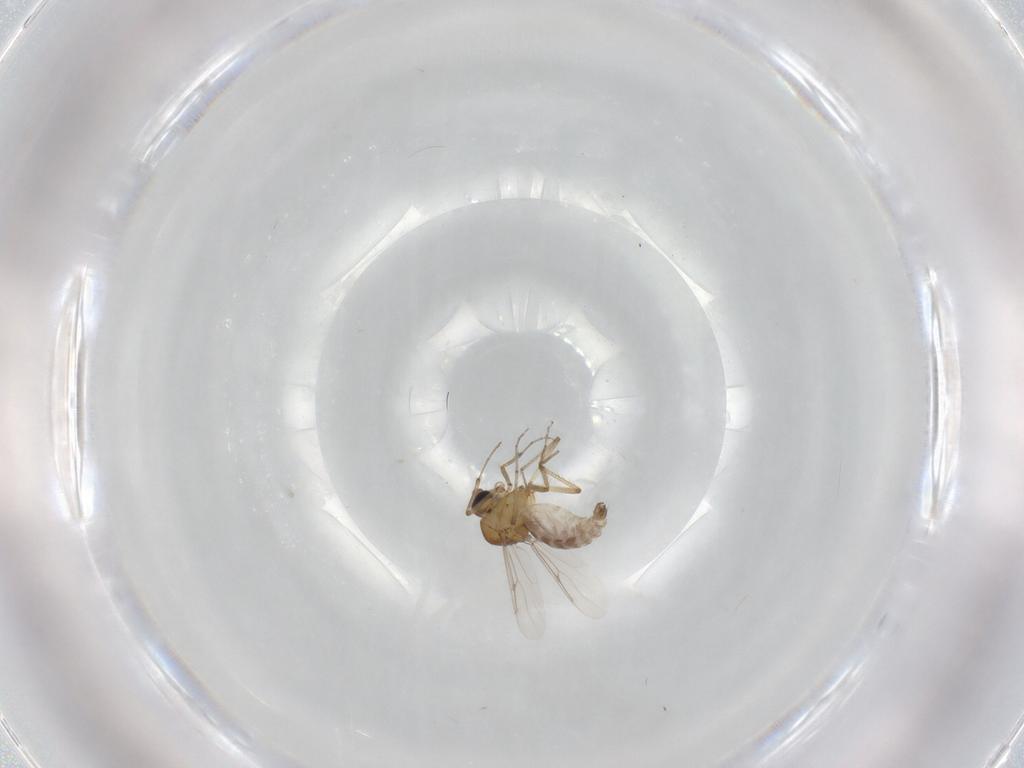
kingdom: Animalia
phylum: Arthropoda
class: Insecta
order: Diptera
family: Ceratopogonidae
